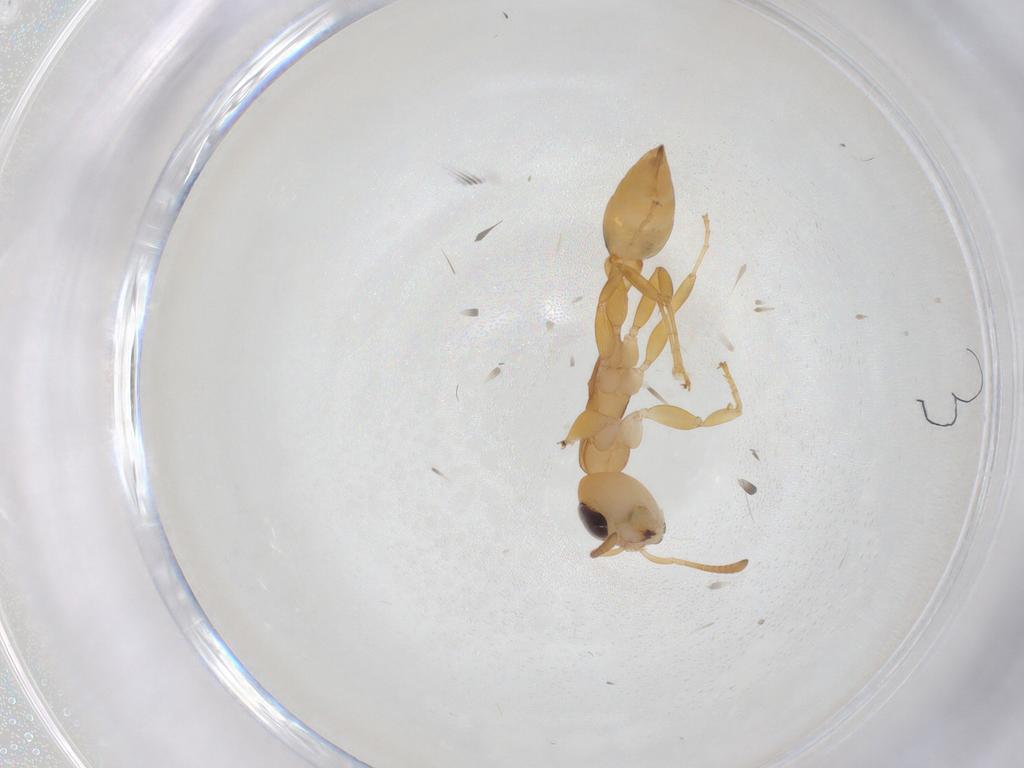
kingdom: Animalia
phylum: Arthropoda
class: Insecta
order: Hymenoptera
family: Formicidae
